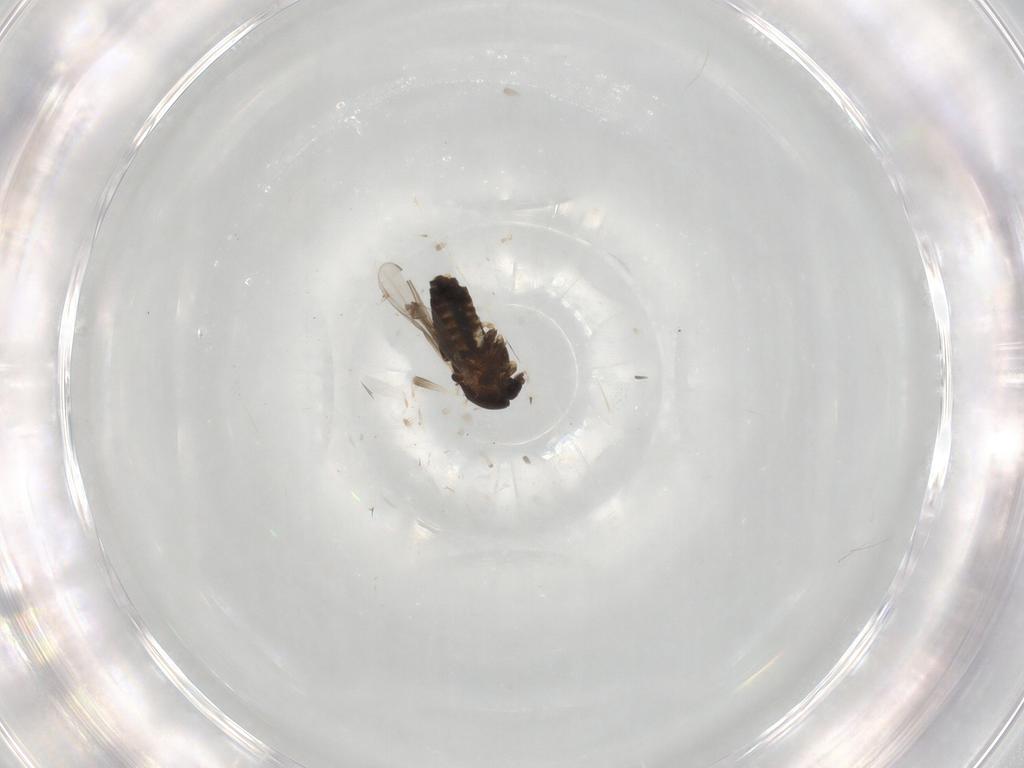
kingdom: Animalia
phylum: Arthropoda
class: Insecta
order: Diptera
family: Chironomidae
